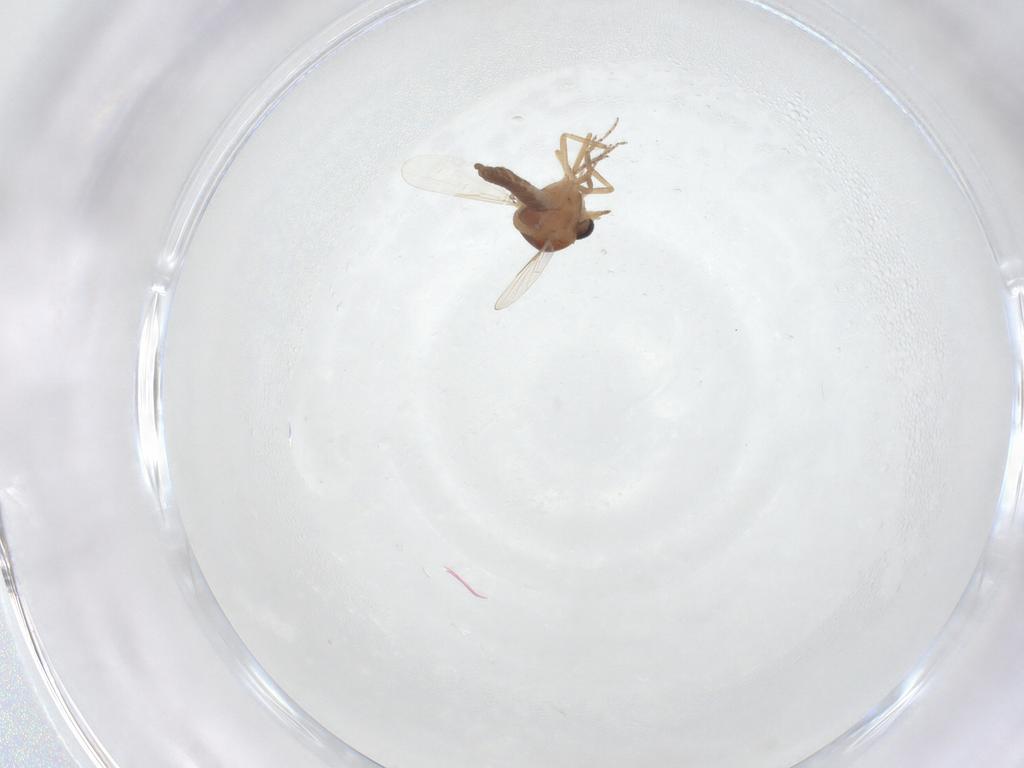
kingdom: Animalia
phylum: Arthropoda
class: Insecta
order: Diptera
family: Ceratopogonidae
